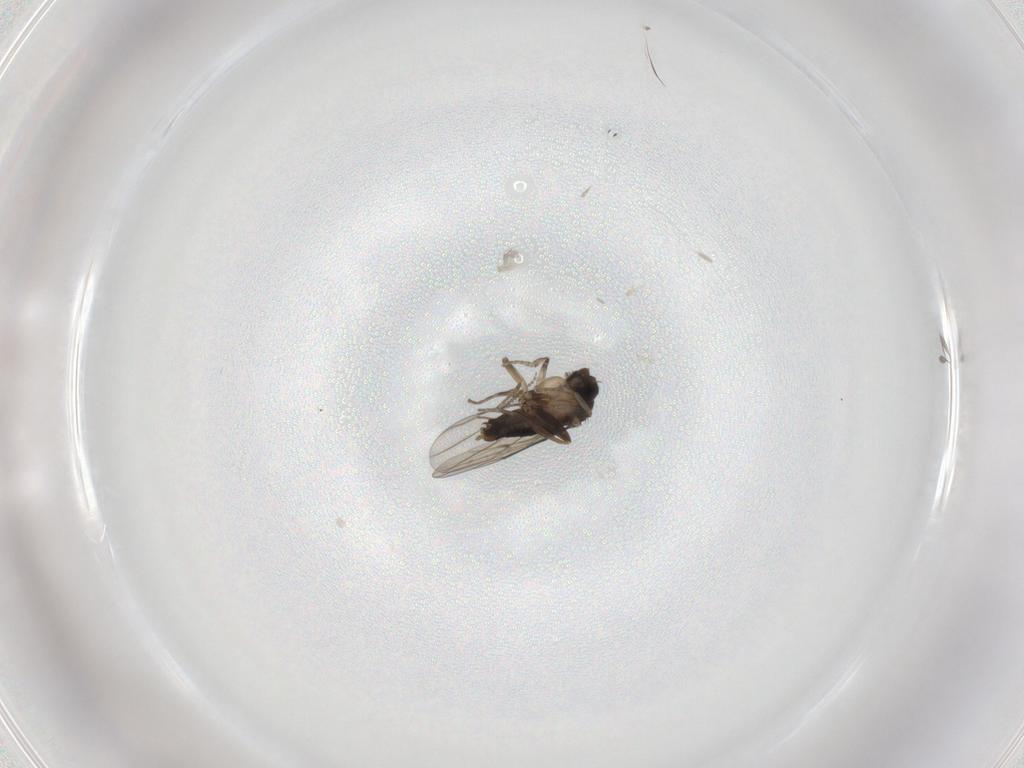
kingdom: Animalia
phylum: Arthropoda
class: Insecta
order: Diptera
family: Phoridae
